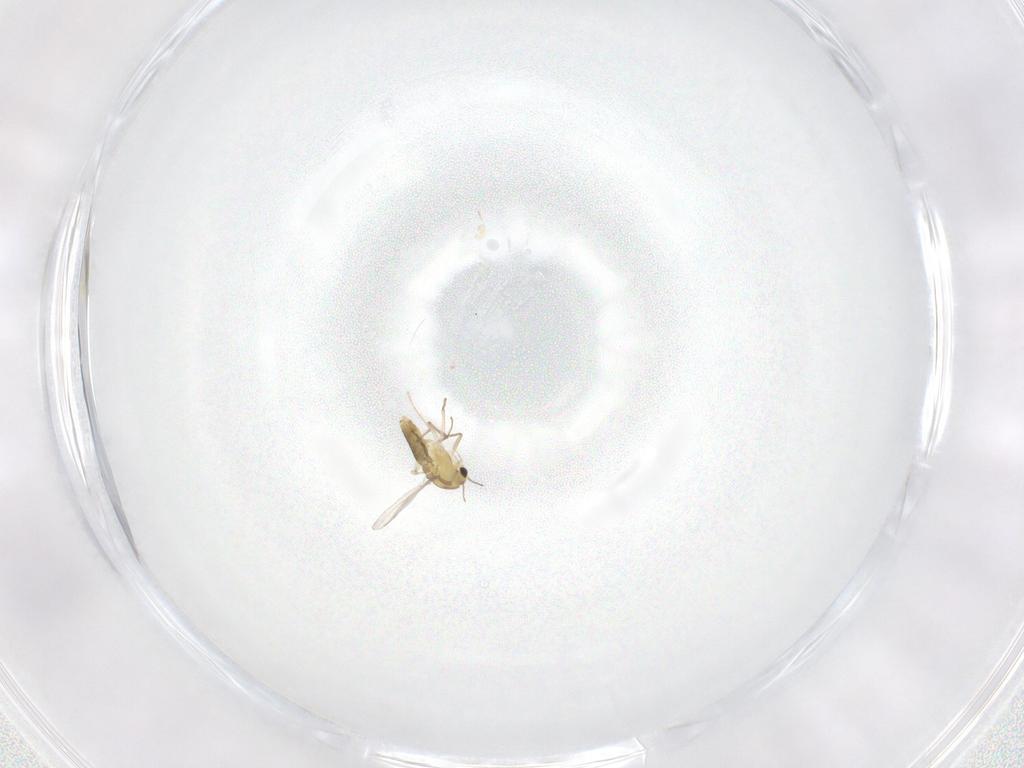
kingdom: Animalia
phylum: Arthropoda
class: Insecta
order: Diptera
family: Chironomidae
